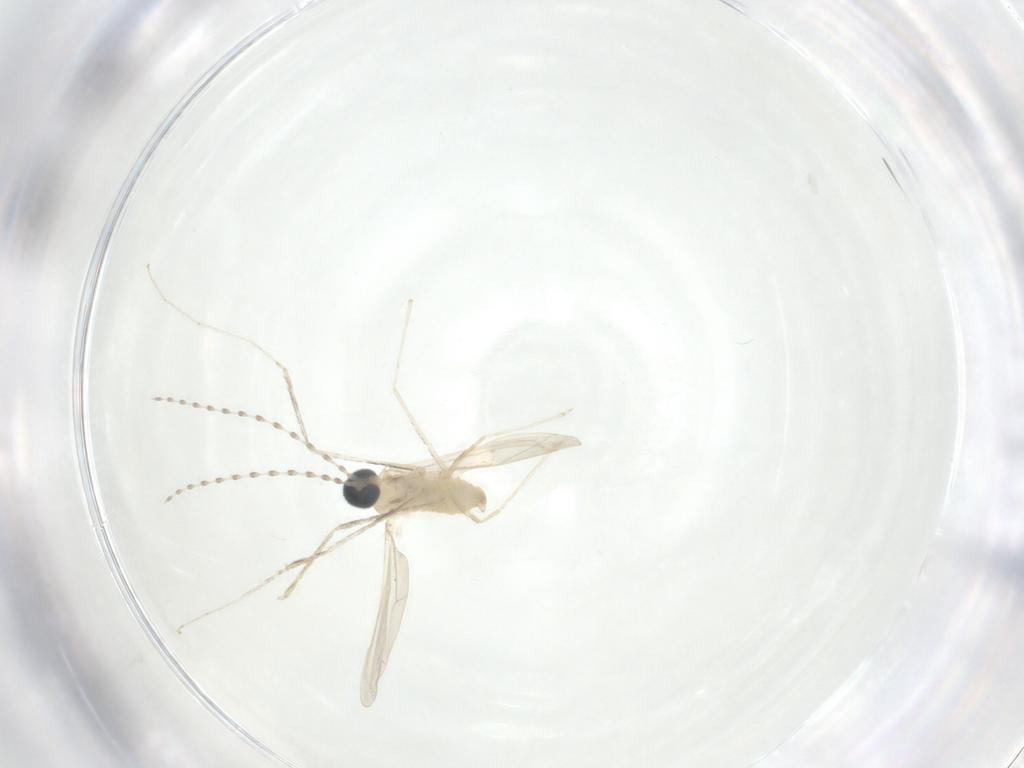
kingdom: Animalia
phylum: Arthropoda
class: Insecta
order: Diptera
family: Cecidomyiidae
